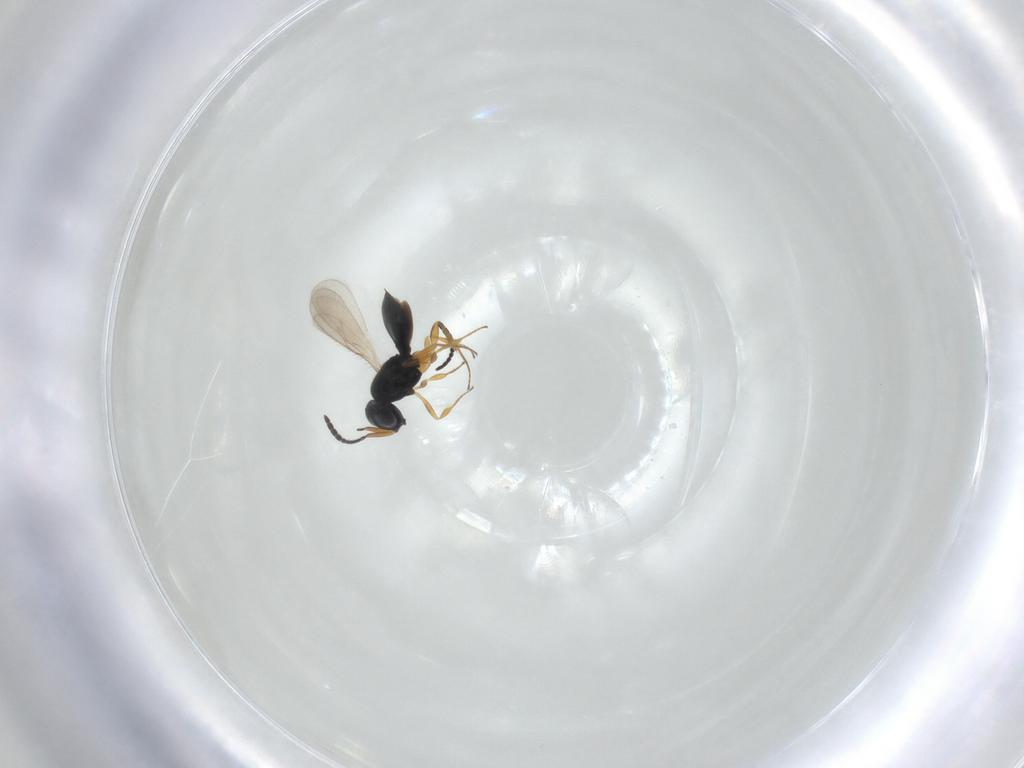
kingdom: Animalia
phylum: Arthropoda
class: Insecta
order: Hymenoptera
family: Scelionidae
